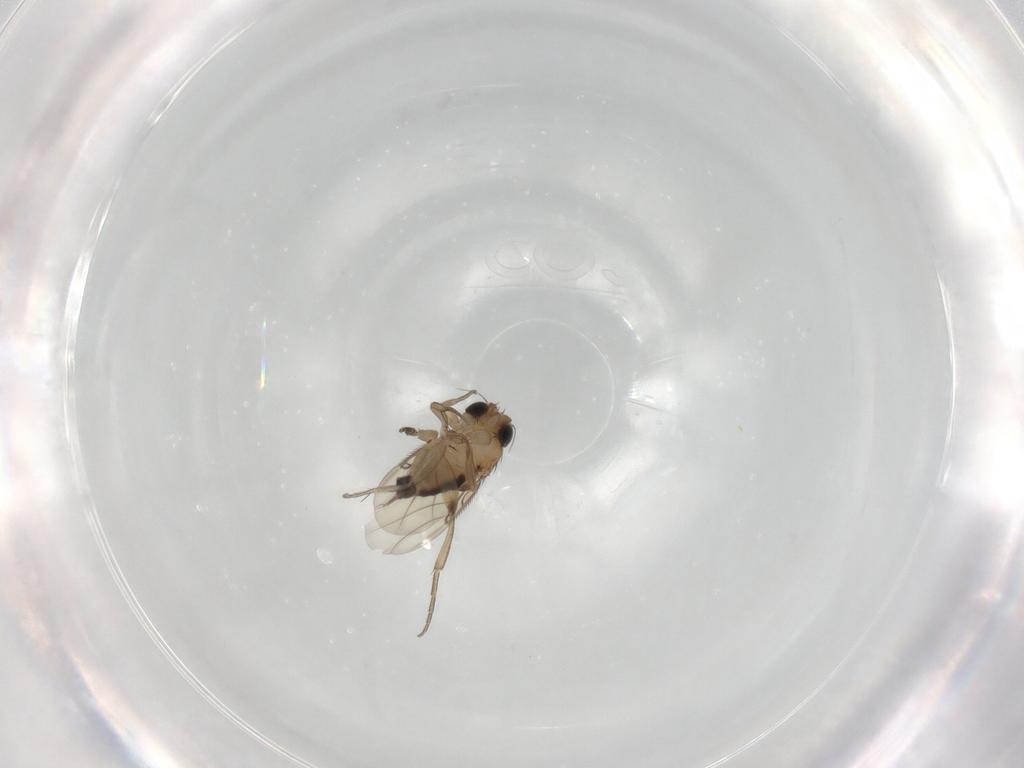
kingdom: Animalia
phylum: Arthropoda
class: Insecta
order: Diptera
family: Phoridae
